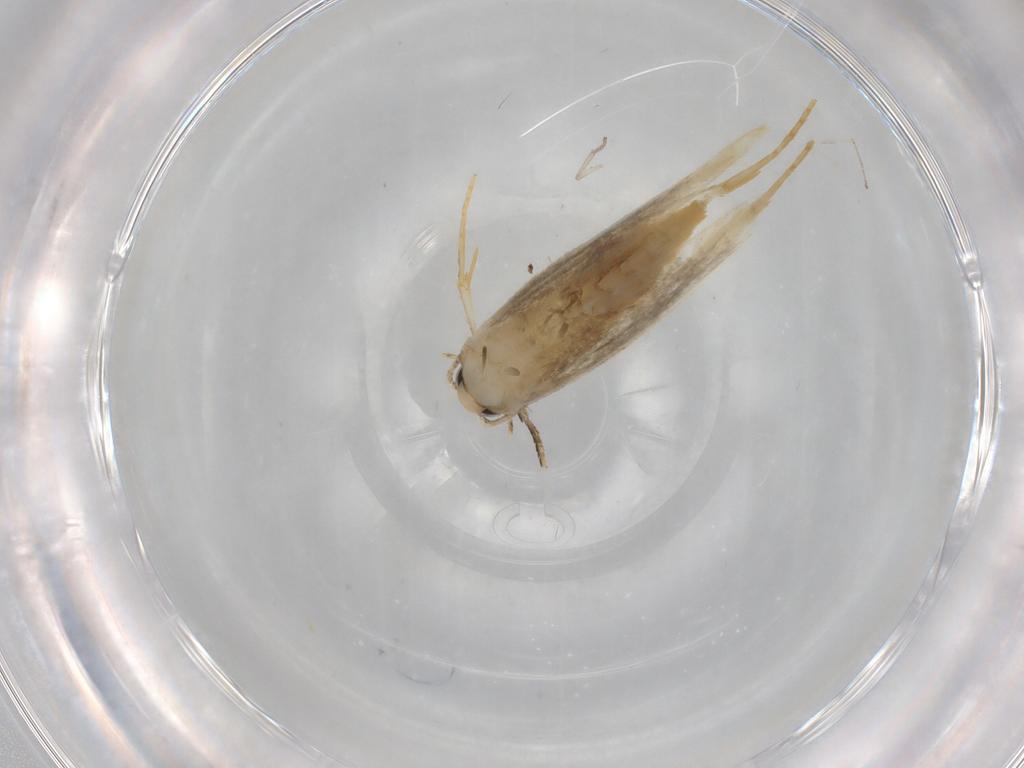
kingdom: Animalia
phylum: Arthropoda
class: Insecta
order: Lepidoptera
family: Tineidae
